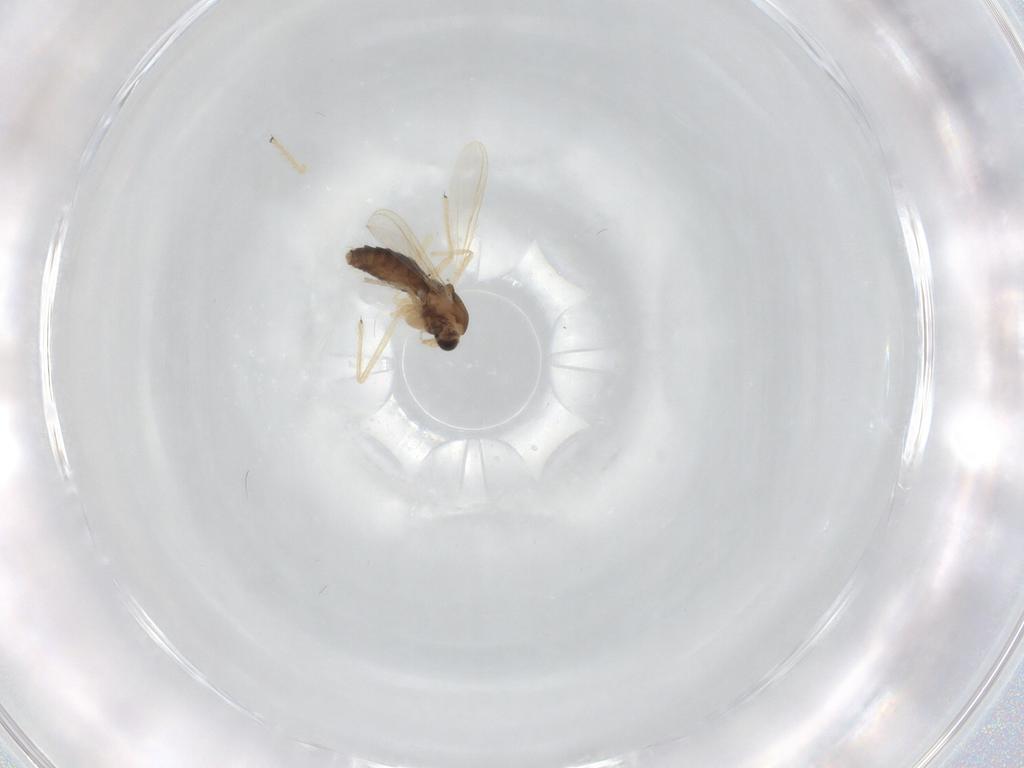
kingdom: Animalia
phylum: Arthropoda
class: Insecta
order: Diptera
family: Chironomidae
